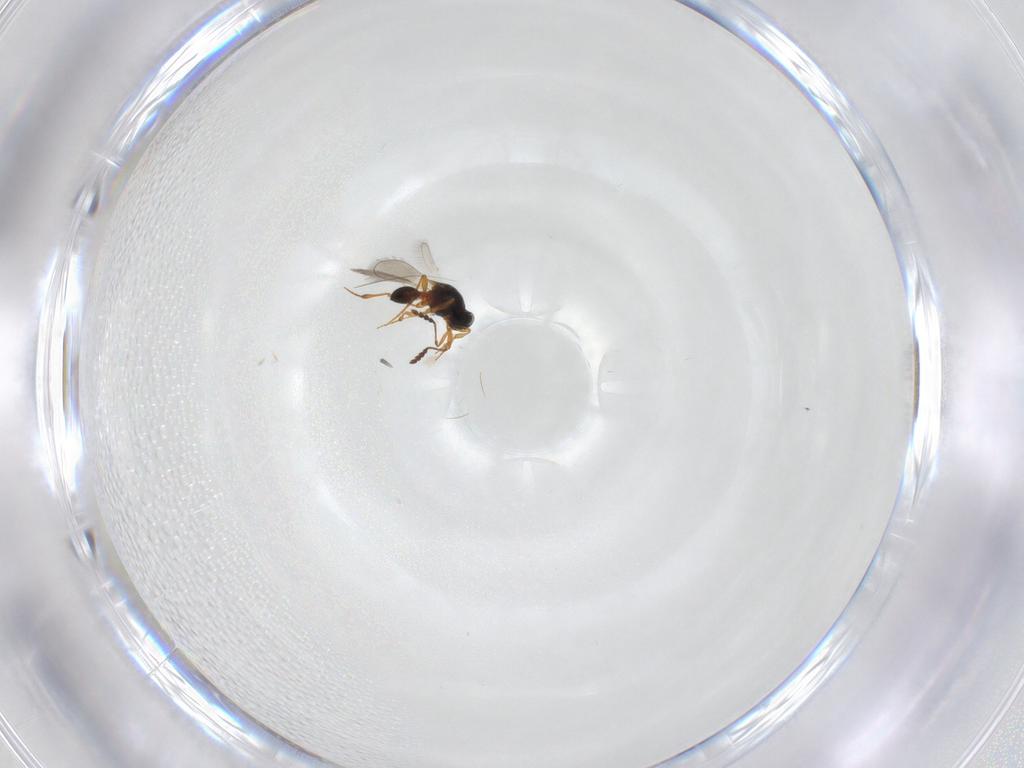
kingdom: Animalia
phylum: Arthropoda
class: Insecta
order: Hymenoptera
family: Platygastridae
